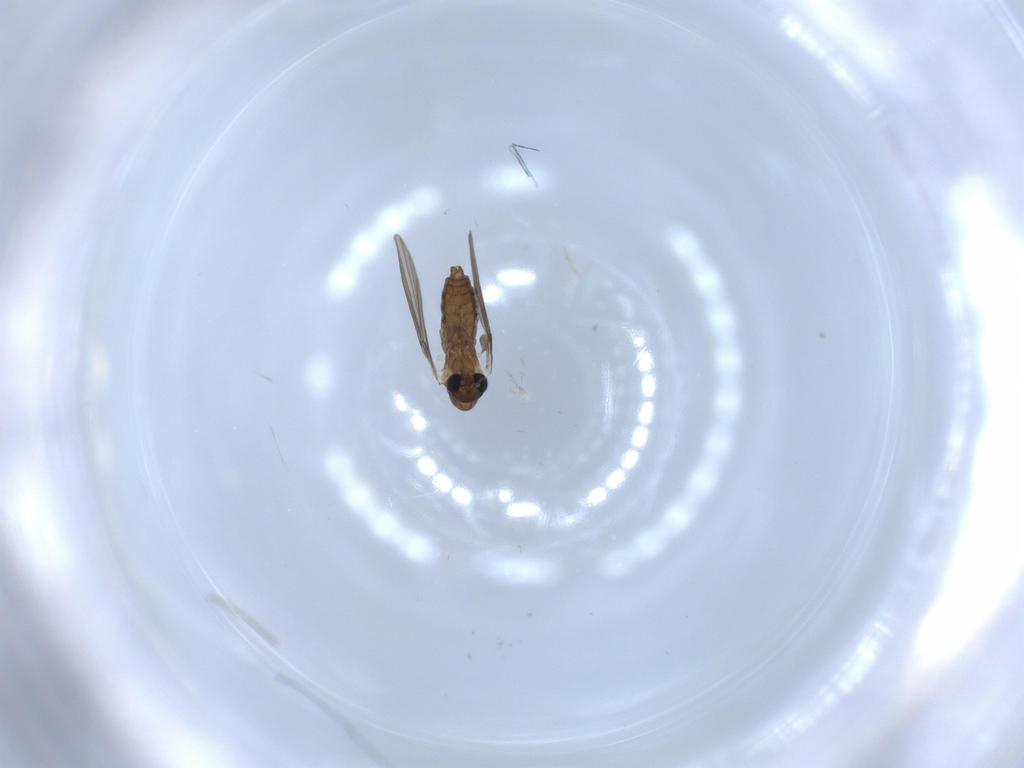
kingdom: Animalia
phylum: Arthropoda
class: Insecta
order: Diptera
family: Psychodidae
